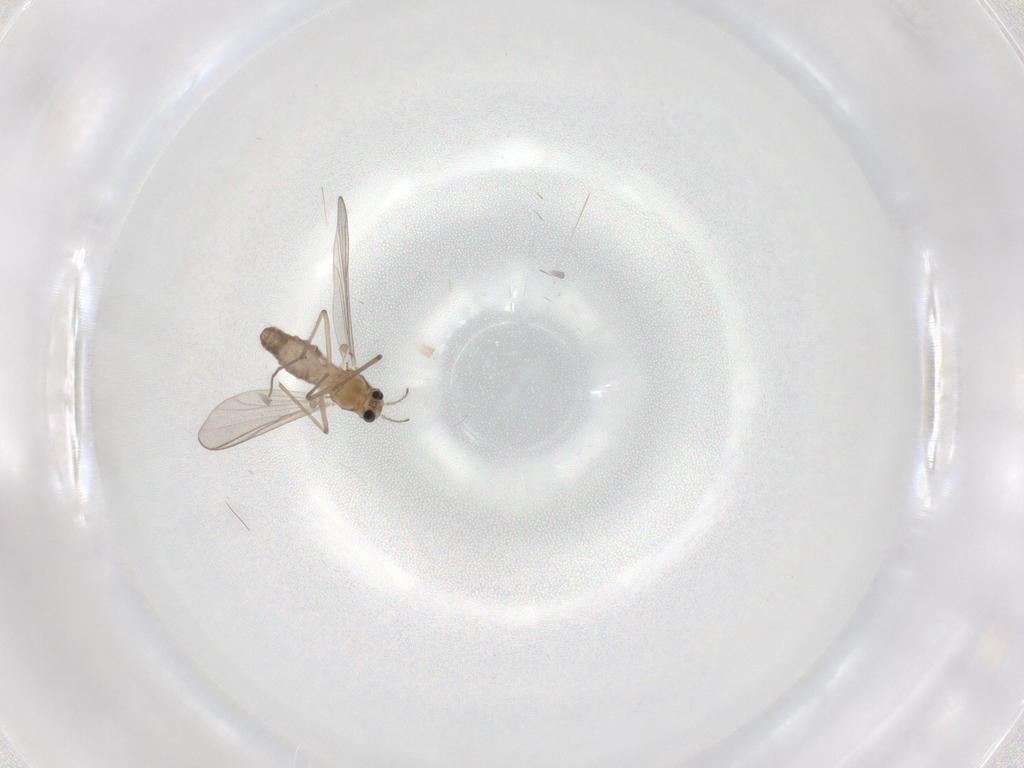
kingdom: Animalia
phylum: Arthropoda
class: Insecta
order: Diptera
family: Chironomidae
